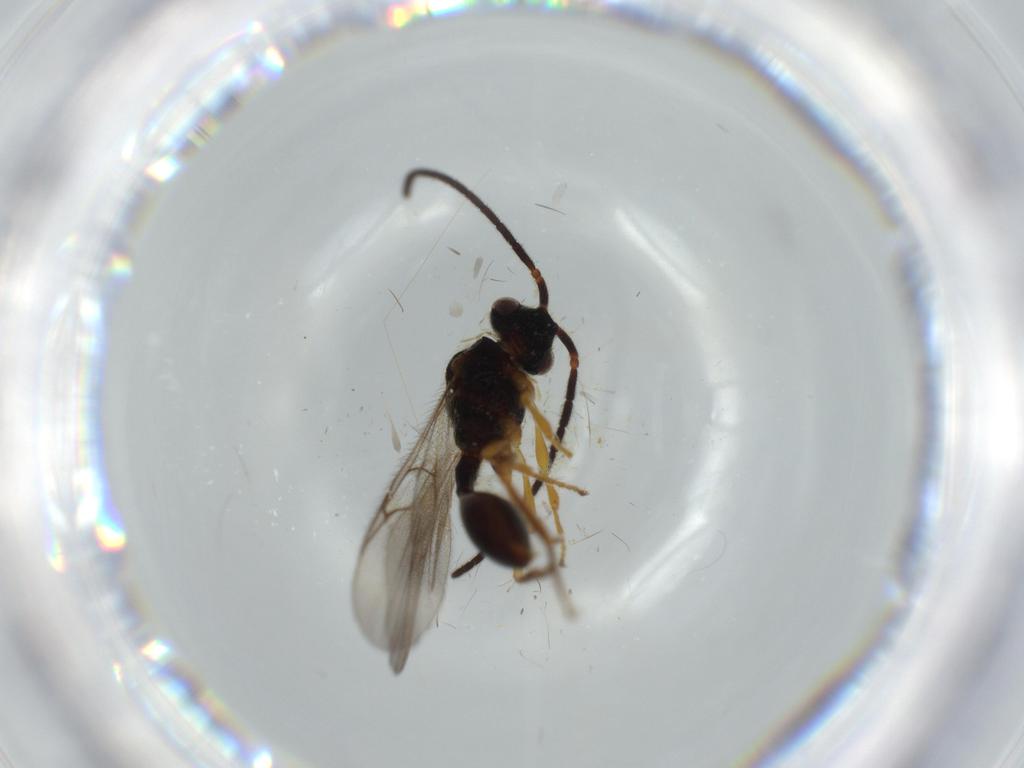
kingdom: Animalia
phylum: Arthropoda
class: Insecta
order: Hymenoptera
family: Trichogrammatidae
